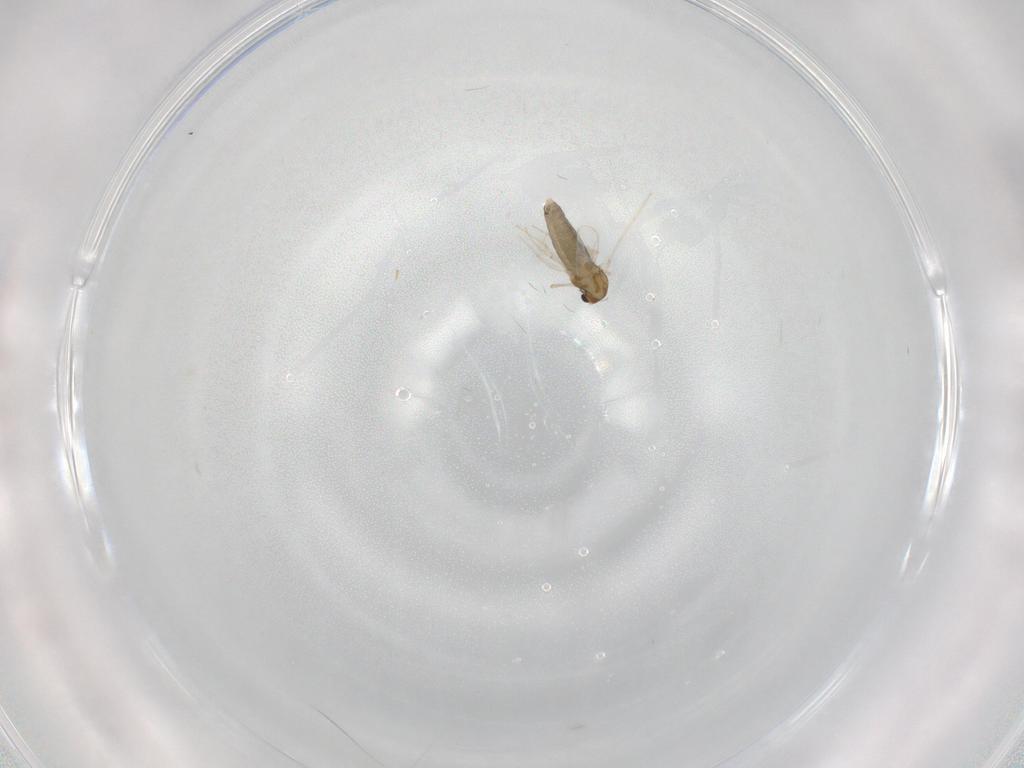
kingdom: Animalia
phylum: Arthropoda
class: Insecta
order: Diptera
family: Chironomidae
